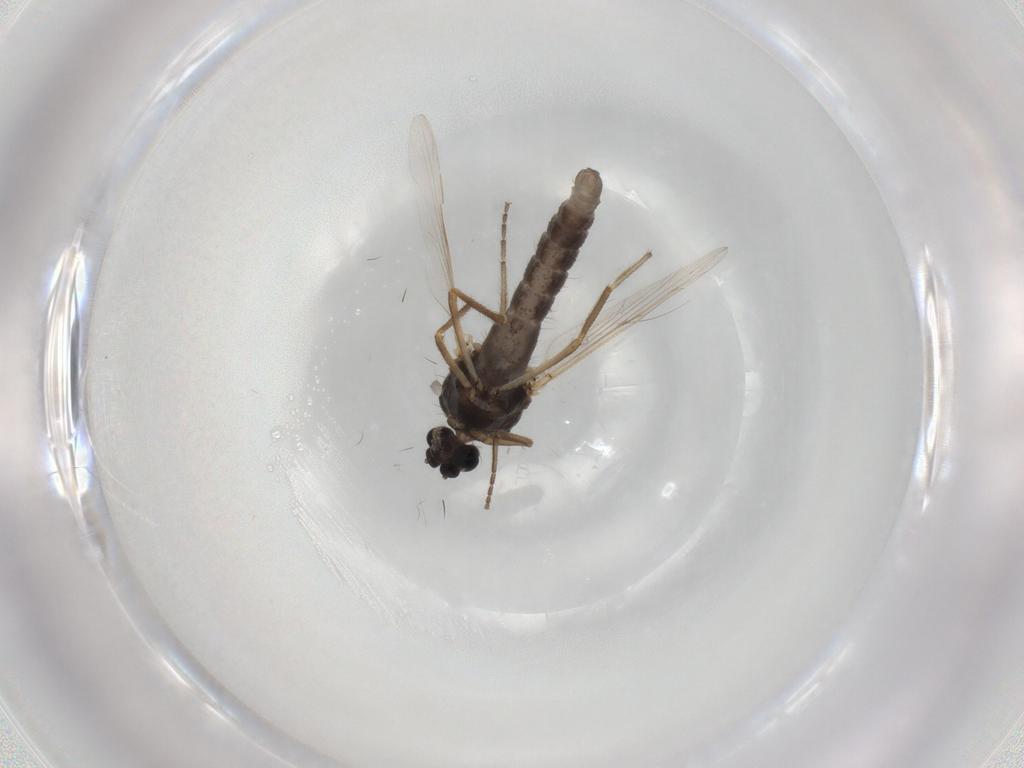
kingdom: Animalia
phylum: Arthropoda
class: Insecta
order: Diptera
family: Ceratopogonidae
